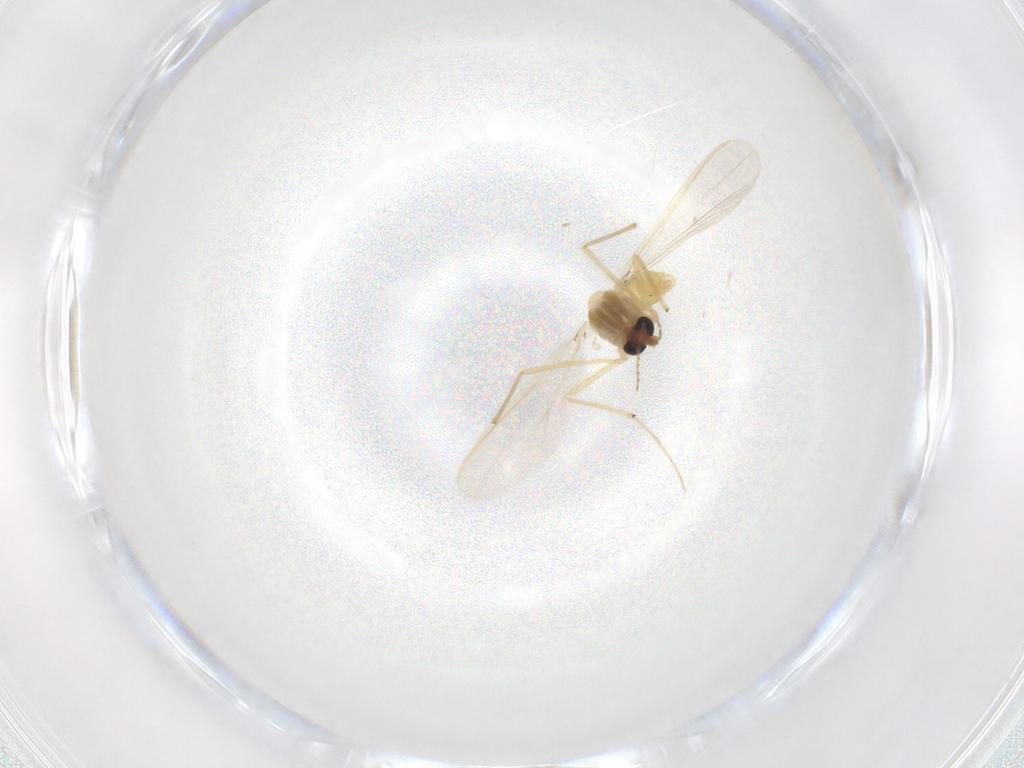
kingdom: Animalia
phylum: Arthropoda
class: Insecta
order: Diptera
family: Chironomidae
